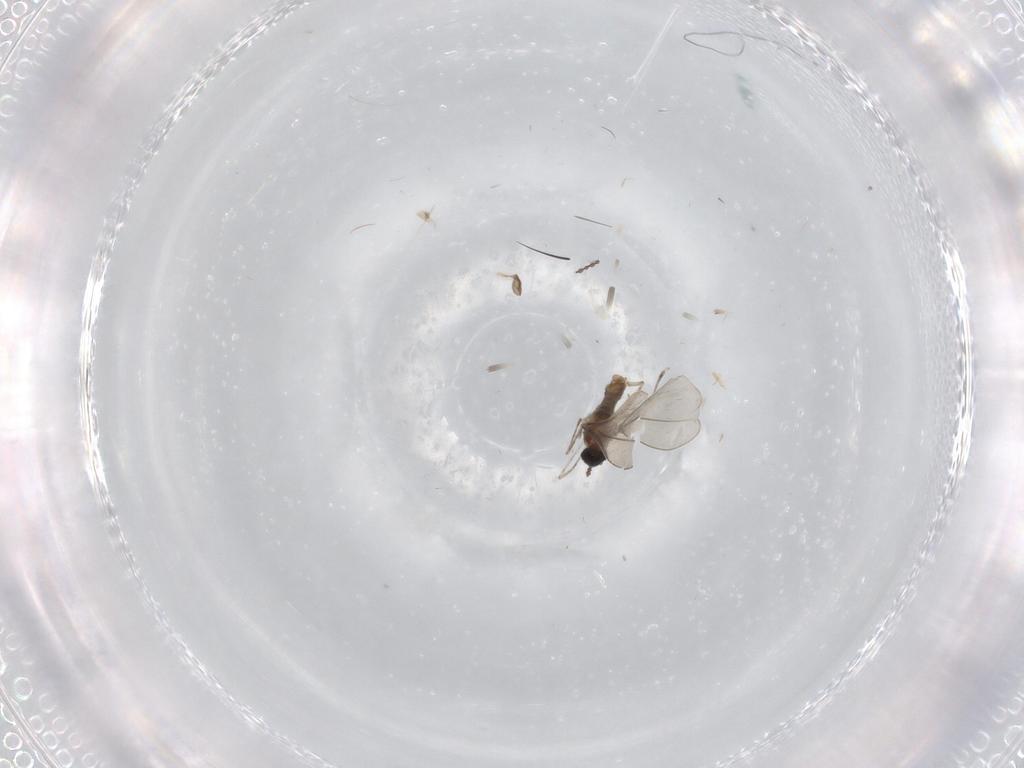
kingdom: Animalia
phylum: Arthropoda
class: Insecta
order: Diptera
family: Cecidomyiidae
